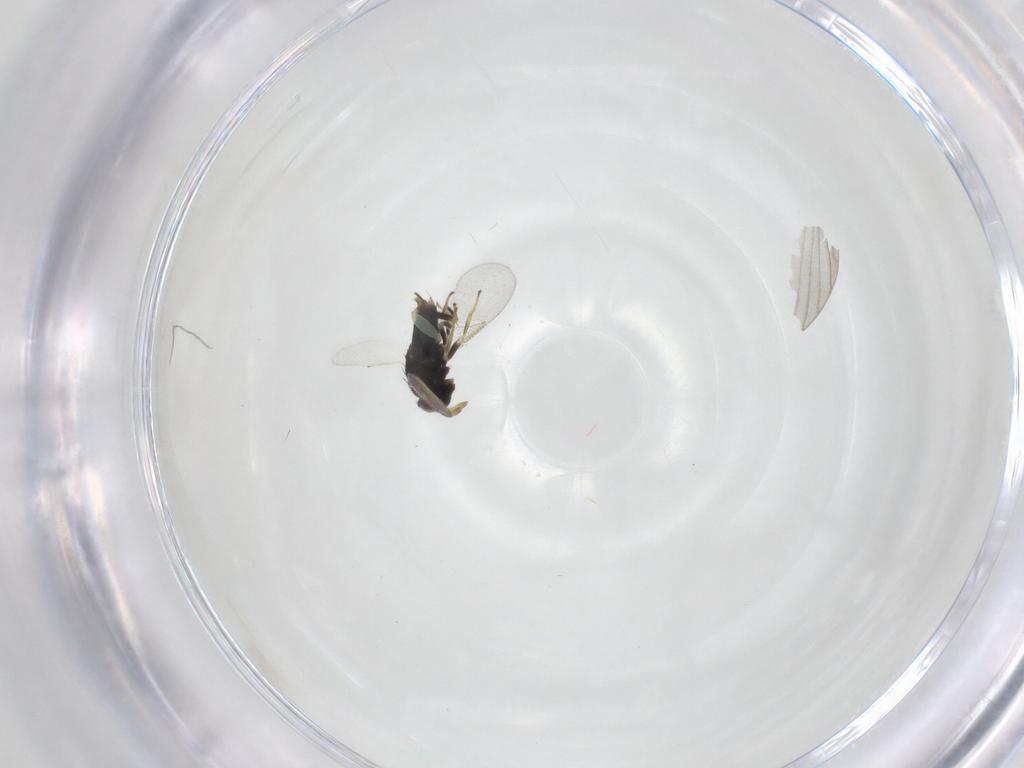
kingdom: Animalia
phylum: Arthropoda
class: Insecta
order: Hymenoptera
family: Aphelinidae
